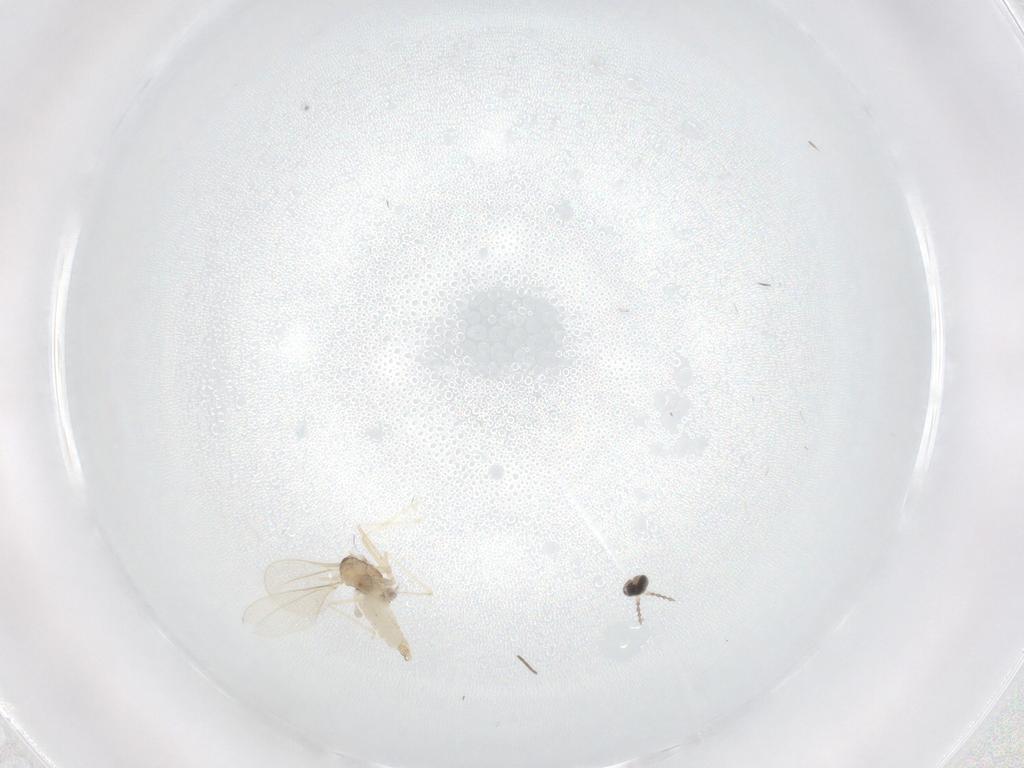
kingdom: Animalia
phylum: Arthropoda
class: Insecta
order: Diptera
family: Cecidomyiidae
